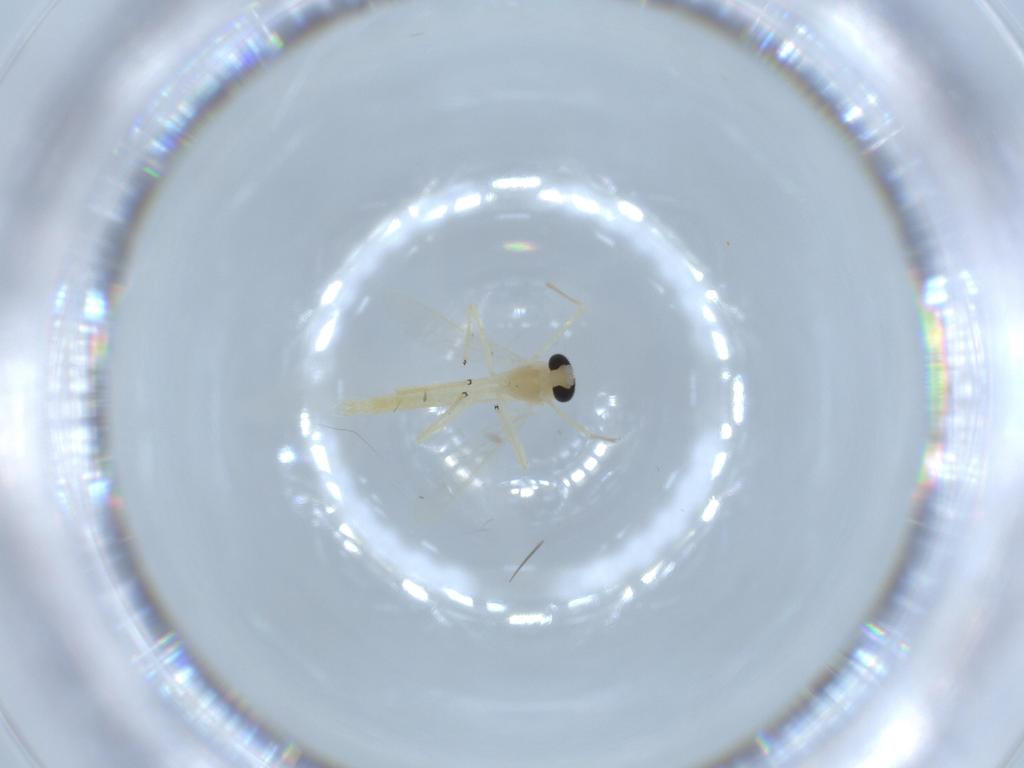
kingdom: Animalia
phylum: Arthropoda
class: Insecta
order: Diptera
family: Chironomidae
